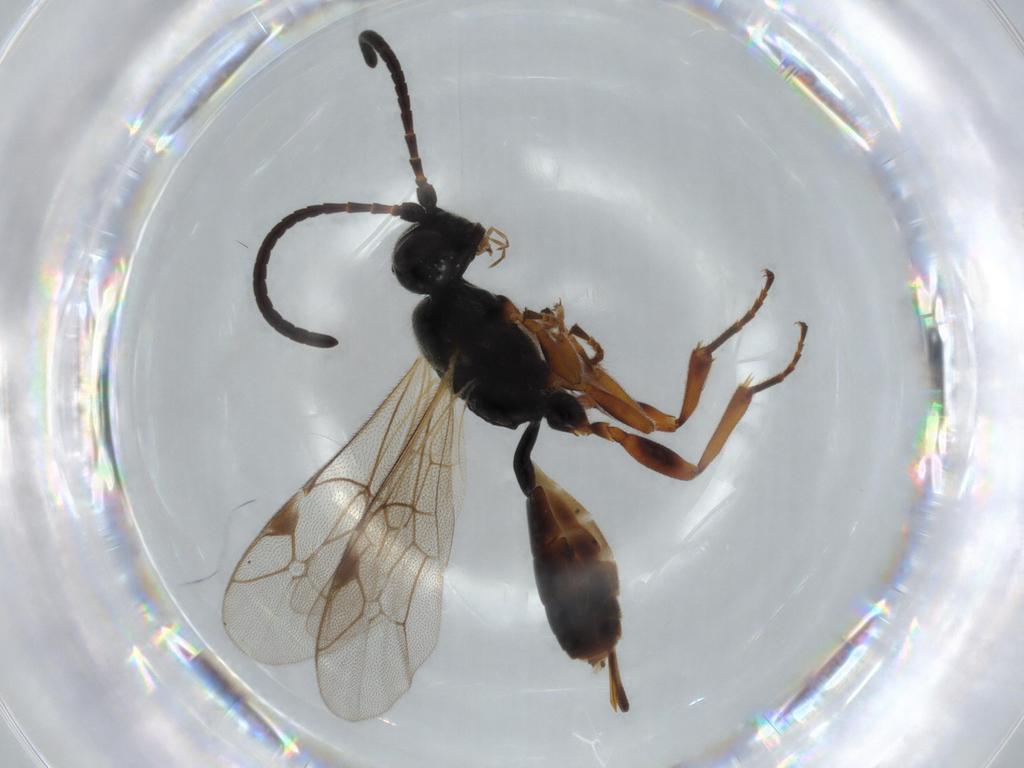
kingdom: Animalia
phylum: Arthropoda
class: Insecta
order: Hymenoptera
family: Ichneumonidae
